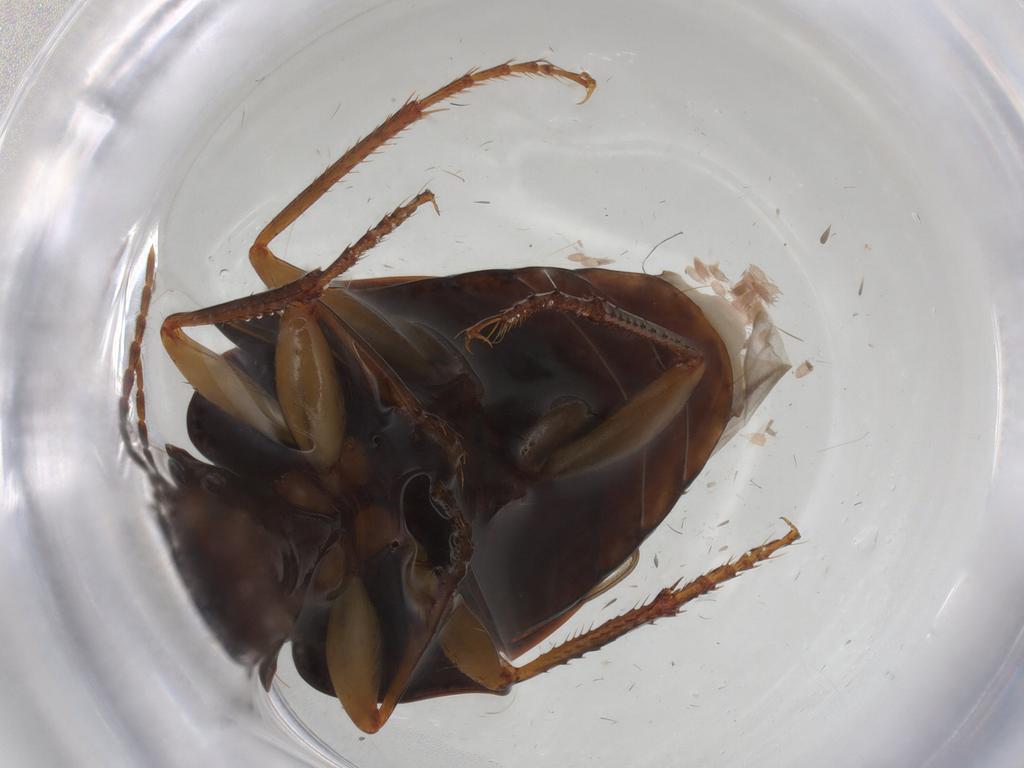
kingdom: Animalia
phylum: Arthropoda
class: Insecta
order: Coleoptera
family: Carabidae
